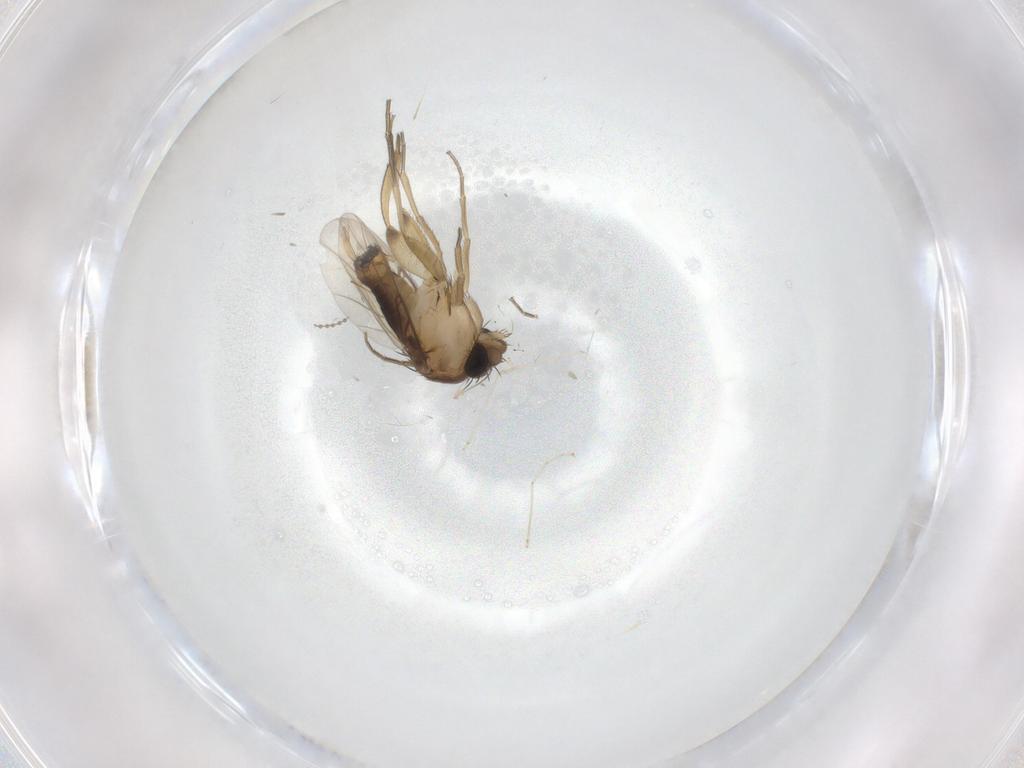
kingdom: Animalia
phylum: Arthropoda
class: Insecta
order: Diptera
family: Phoridae
